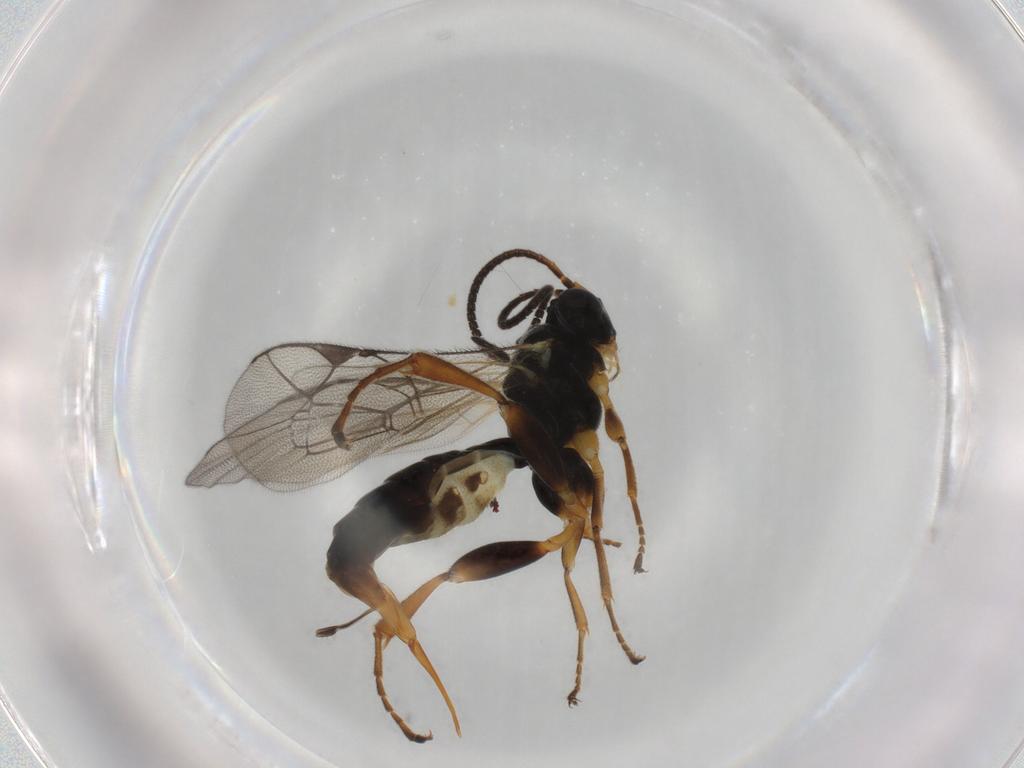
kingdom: Animalia
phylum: Arthropoda
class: Insecta
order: Hymenoptera
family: Ichneumonidae
